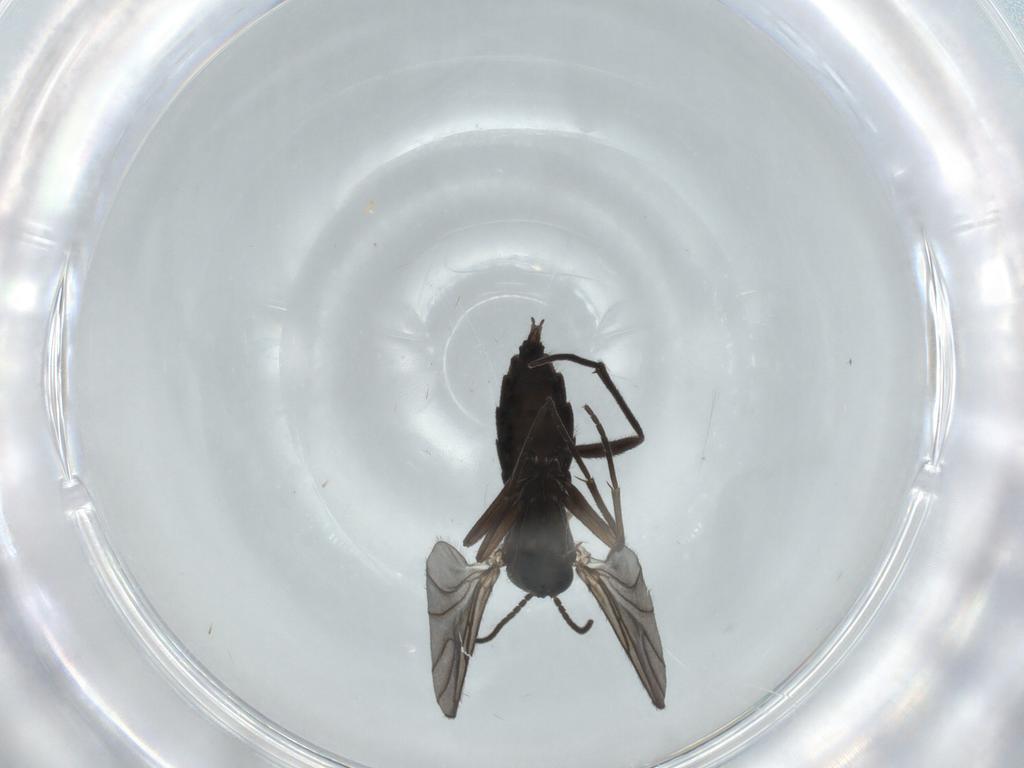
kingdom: Animalia
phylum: Arthropoda
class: Insecta
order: Diptera
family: Sciaridae
